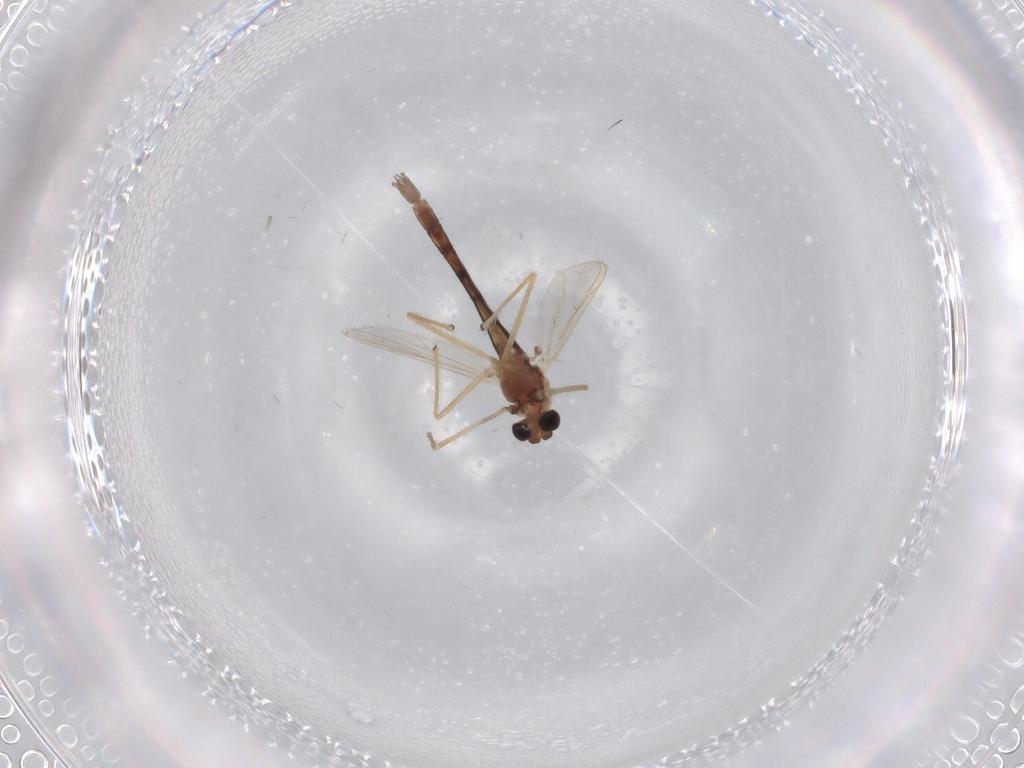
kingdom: Animalia
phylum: Arthropoda
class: Insecta
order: Diptera
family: Chironomidae
